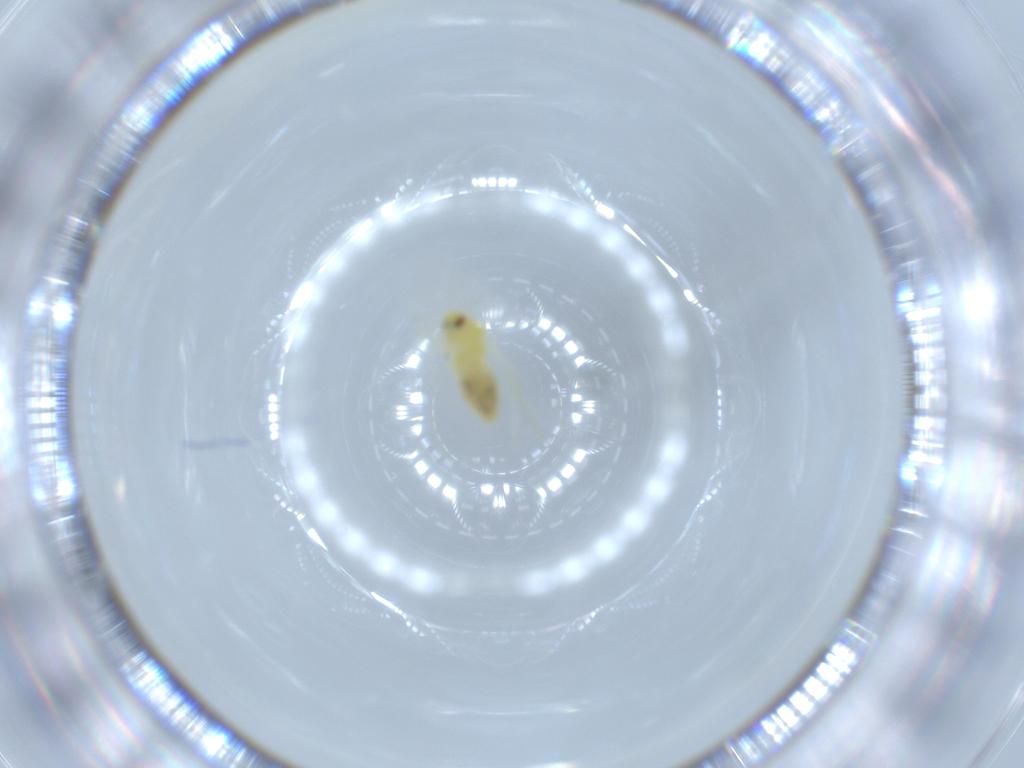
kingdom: Animalia
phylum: Arthropoda
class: Insecta
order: Hemiptera
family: Aleyrodidae
